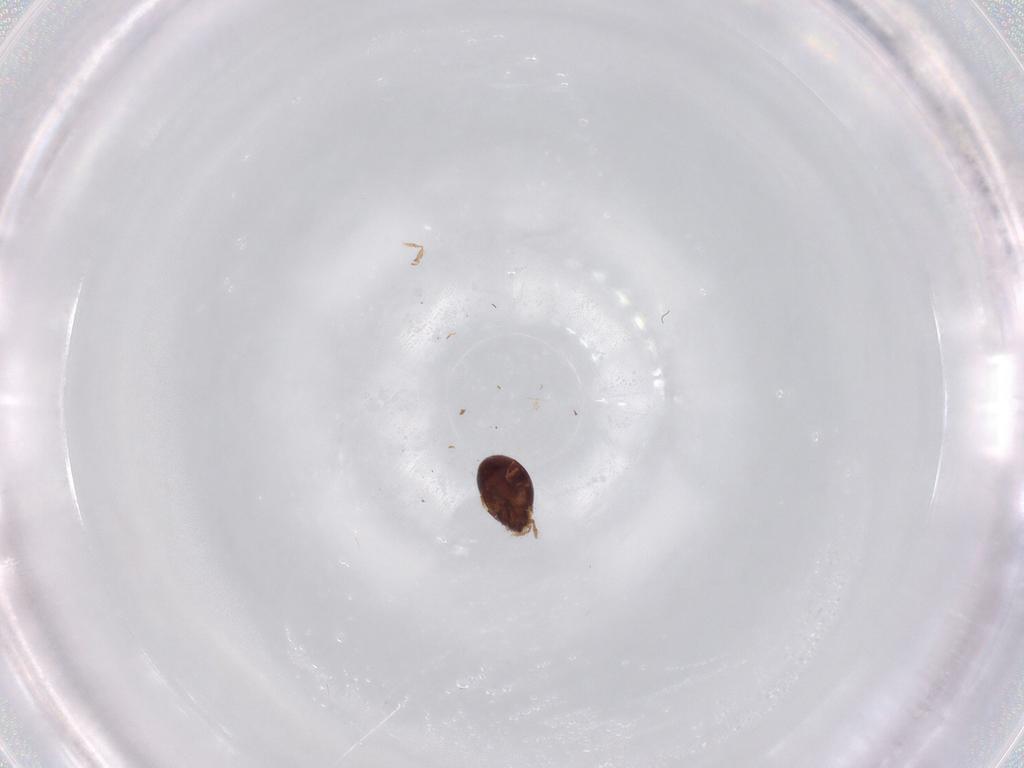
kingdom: Animalia
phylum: Arthropoda
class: Arachnida
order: Sarcoptiformes
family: Humerobatidae
